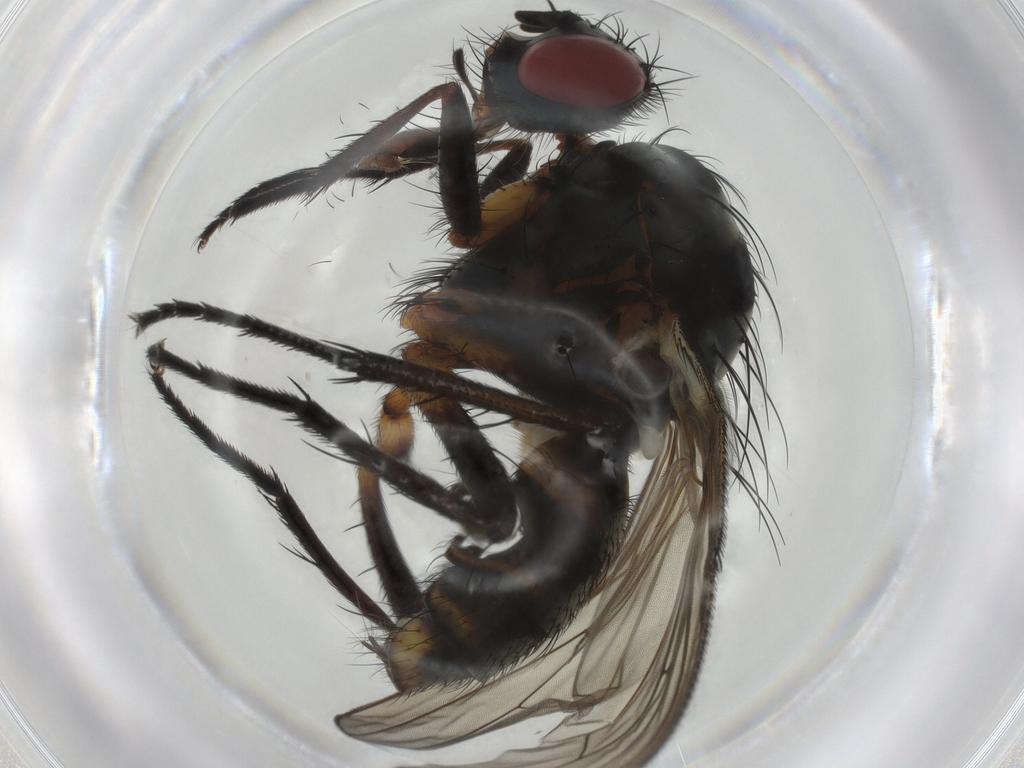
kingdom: Animalia
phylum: Arthropoda
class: Insecta
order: Diptera
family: Anthomyiidae
